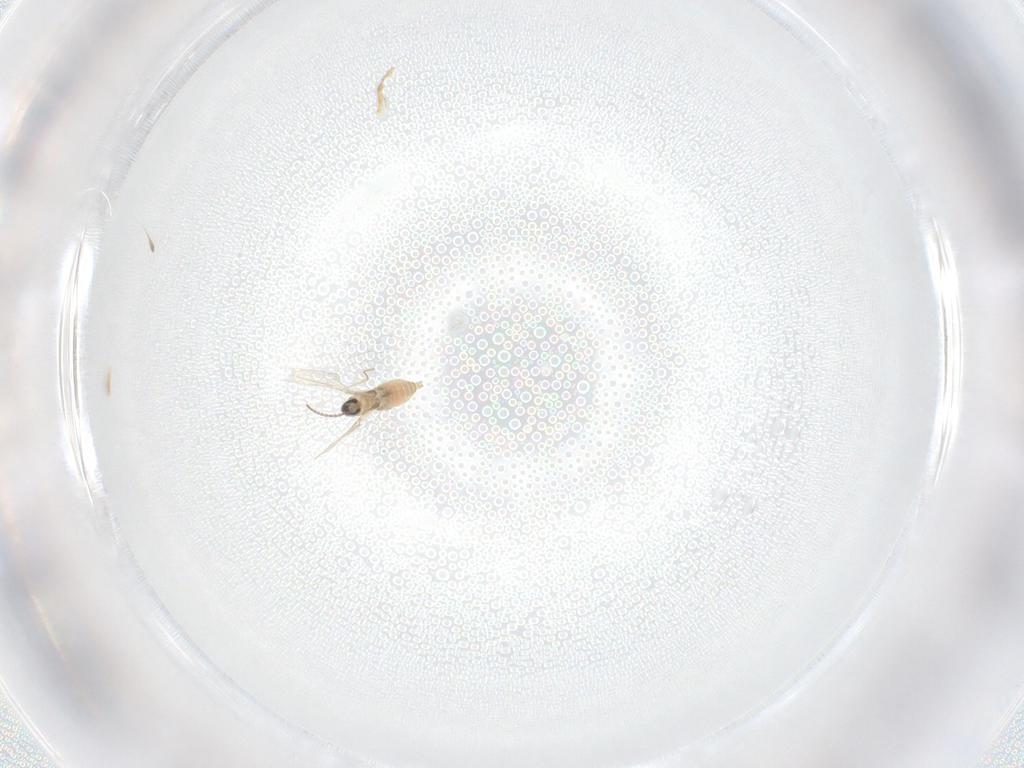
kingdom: Animalia
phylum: Arthropoda
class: Insecta
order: Diptera
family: Cecidomyiidae
